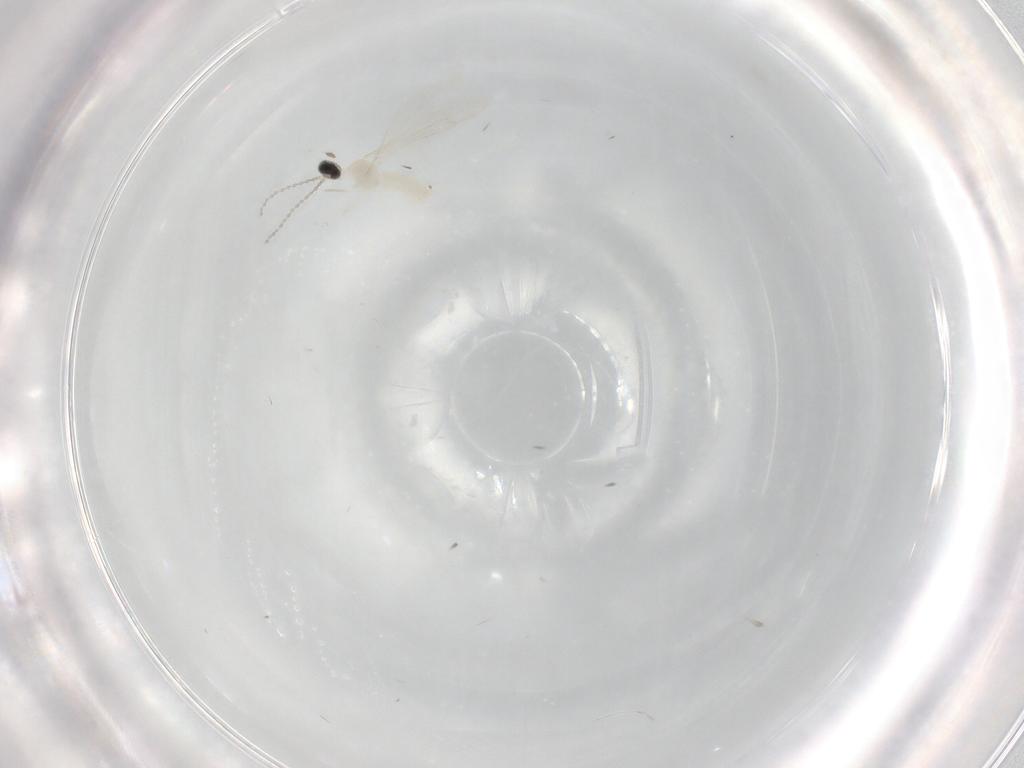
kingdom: Animalia
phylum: Arthropoda
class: Insecta
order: Diptera
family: Cecidomyiidae
